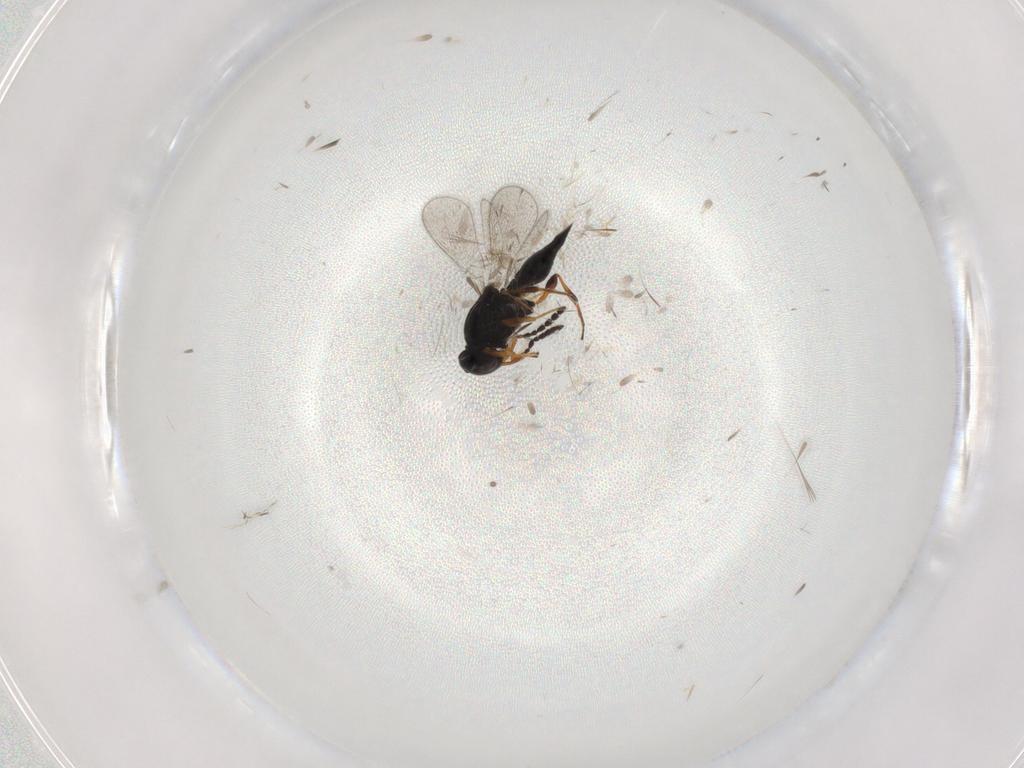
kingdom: Animalia
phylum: Arthropoda
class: Insecta
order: Hymenoptera
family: Platygastridae
